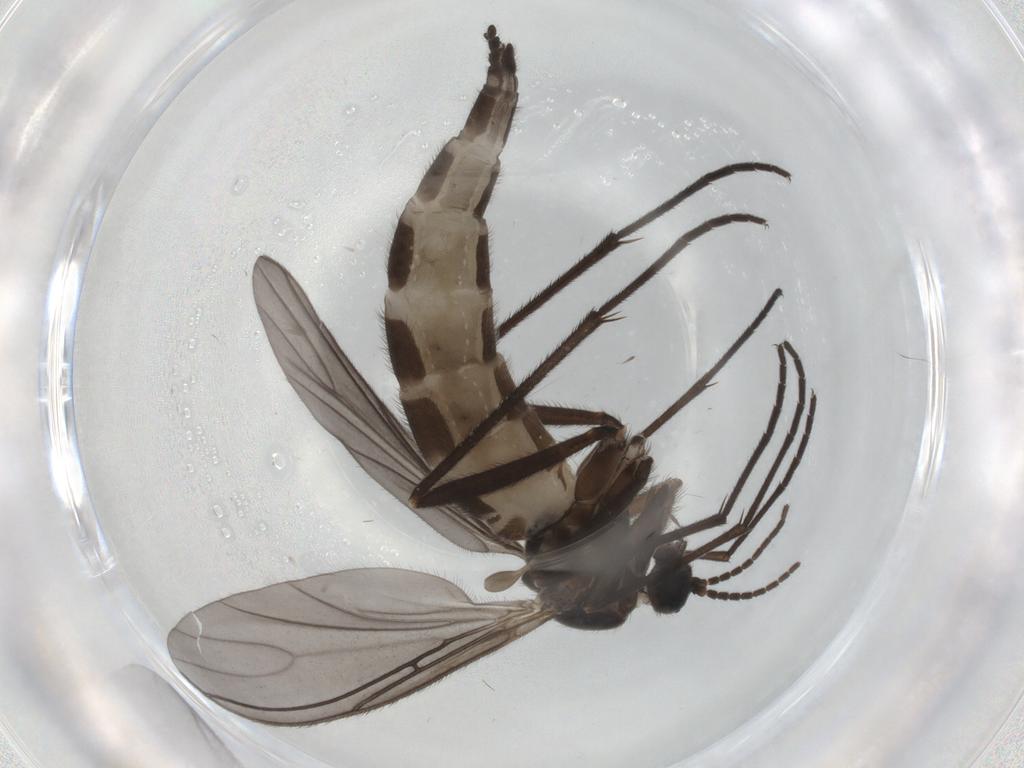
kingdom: Animalia
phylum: Arthropoda
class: Insecta
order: Diptera
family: Sciaridae
